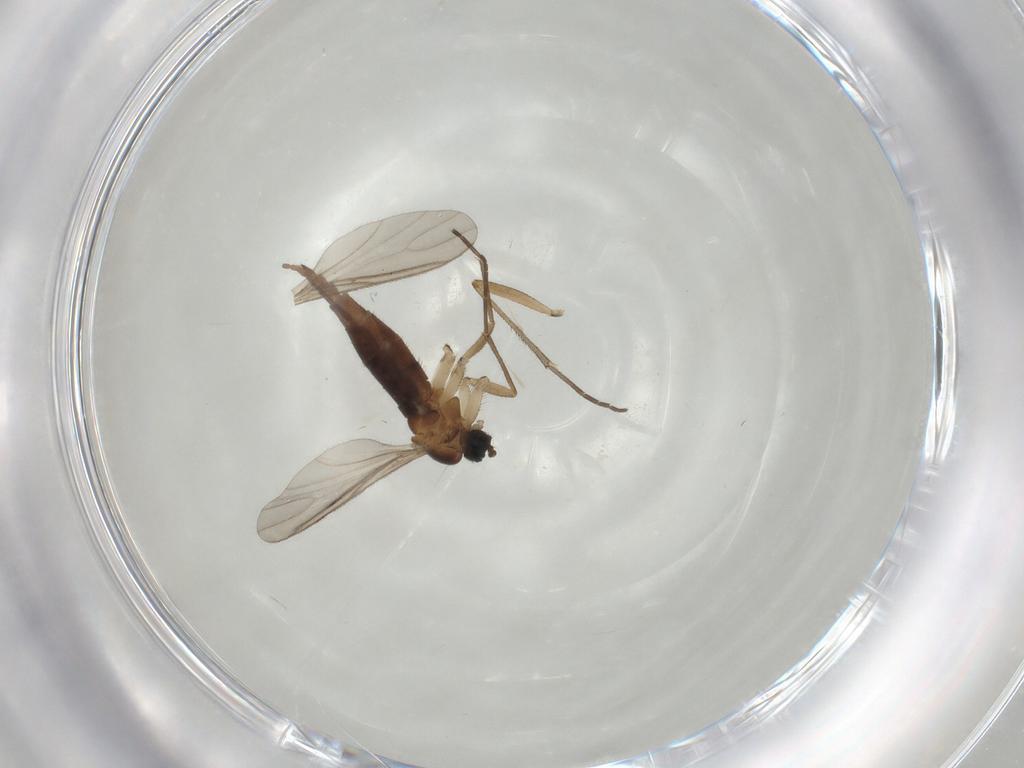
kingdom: Animalia
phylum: Arthropoda
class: Insecta
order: Diptera
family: Sciaridae
